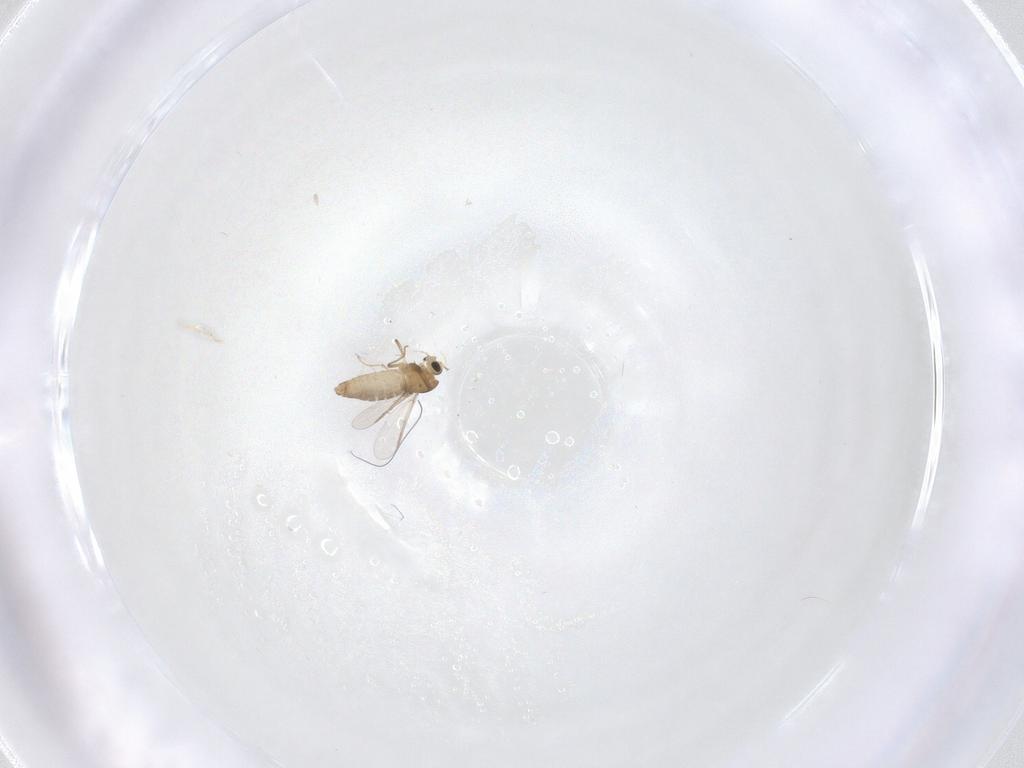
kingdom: Animalia
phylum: Arthropoda
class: Insecta
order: Diptera
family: Chironomidae
